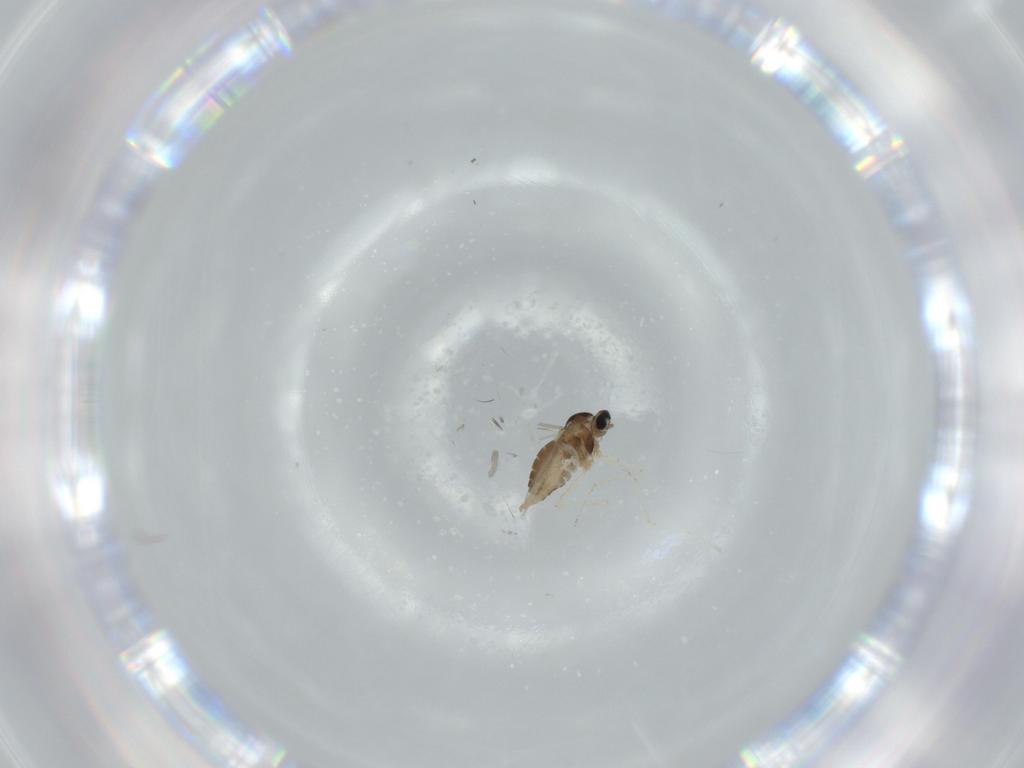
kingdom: Animalia
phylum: Arthropoda
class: Insecta
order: Diptera
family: Cecidomyiidae
